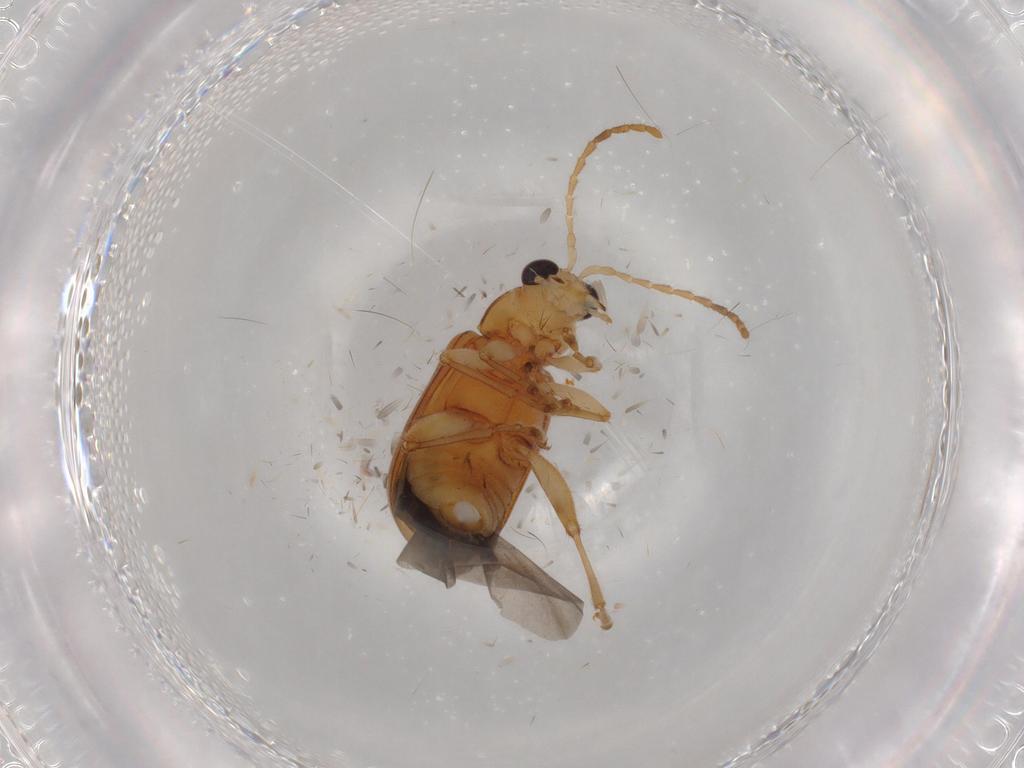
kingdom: Animalia
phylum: Arthropoda
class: Insecta
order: Coleoptera
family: Chrysomelidae
